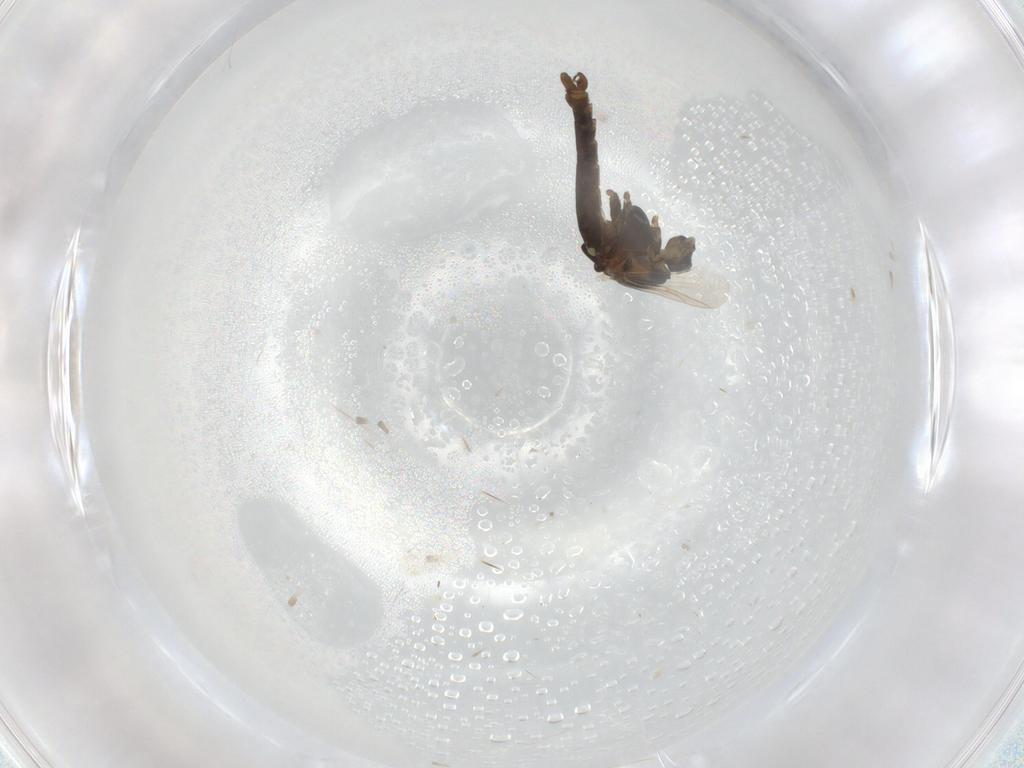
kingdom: Animalia
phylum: Arthropoda
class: Insecta
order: Diptera
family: Chironomidae
